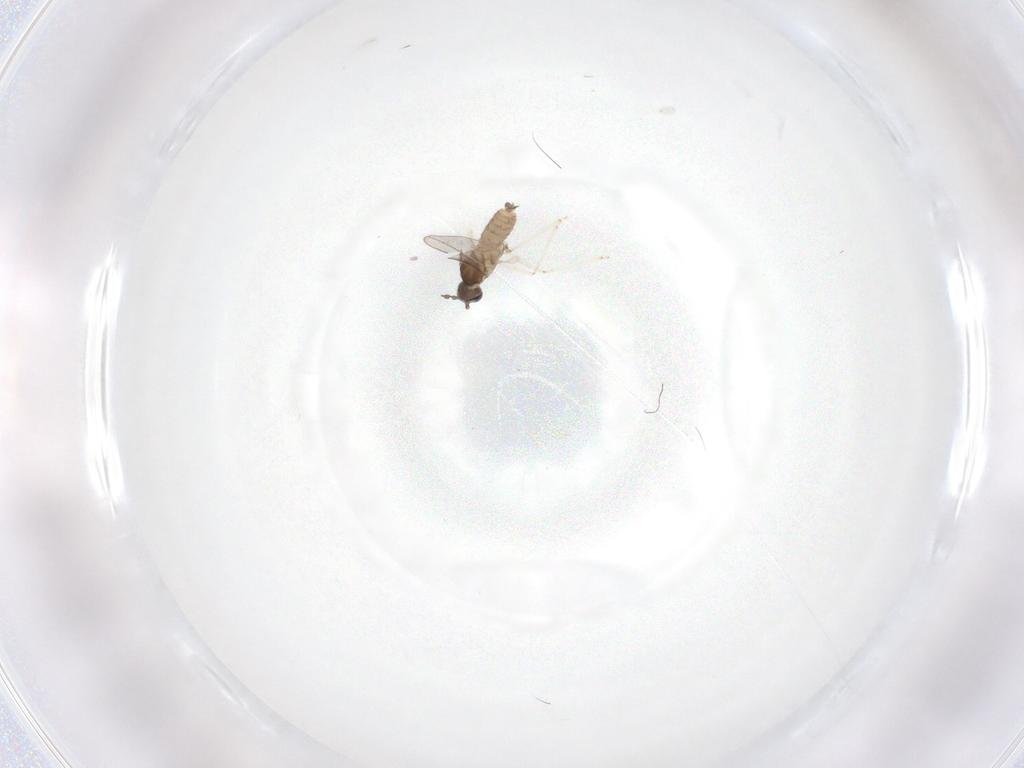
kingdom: Animalia
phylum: Arthropoda
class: Insecta
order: Diptera
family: Cecidomyiidae
